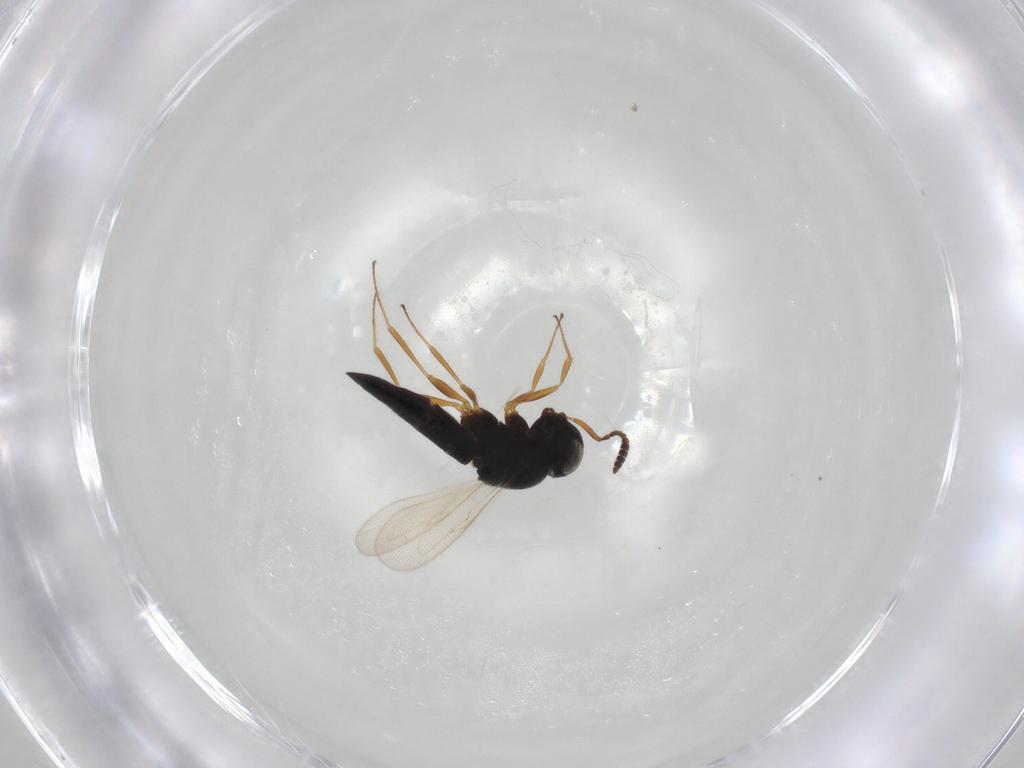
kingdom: Animalia
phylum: Arthropoda
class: Insecta
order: Hymenoptera
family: Scelionidae
